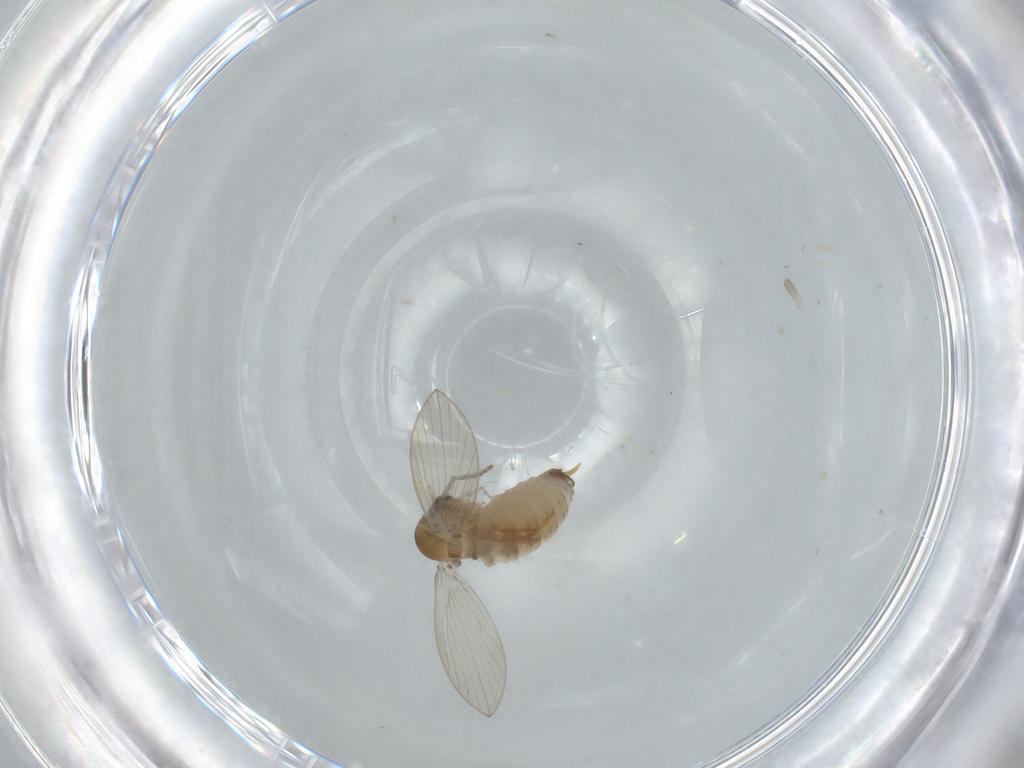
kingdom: Animalia
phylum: Arthropoda
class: Insecta
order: Diptera
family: Psychodidae
